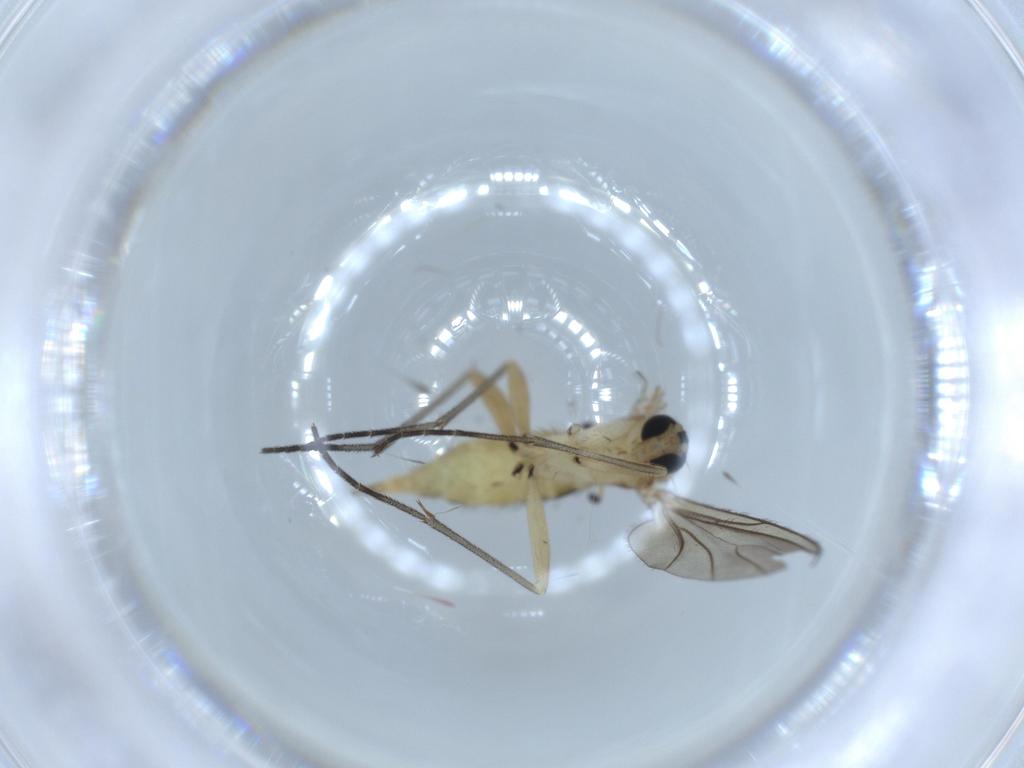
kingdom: Animalia
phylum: Arthropoda
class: Insecta
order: Diptera
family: Sciaridae
